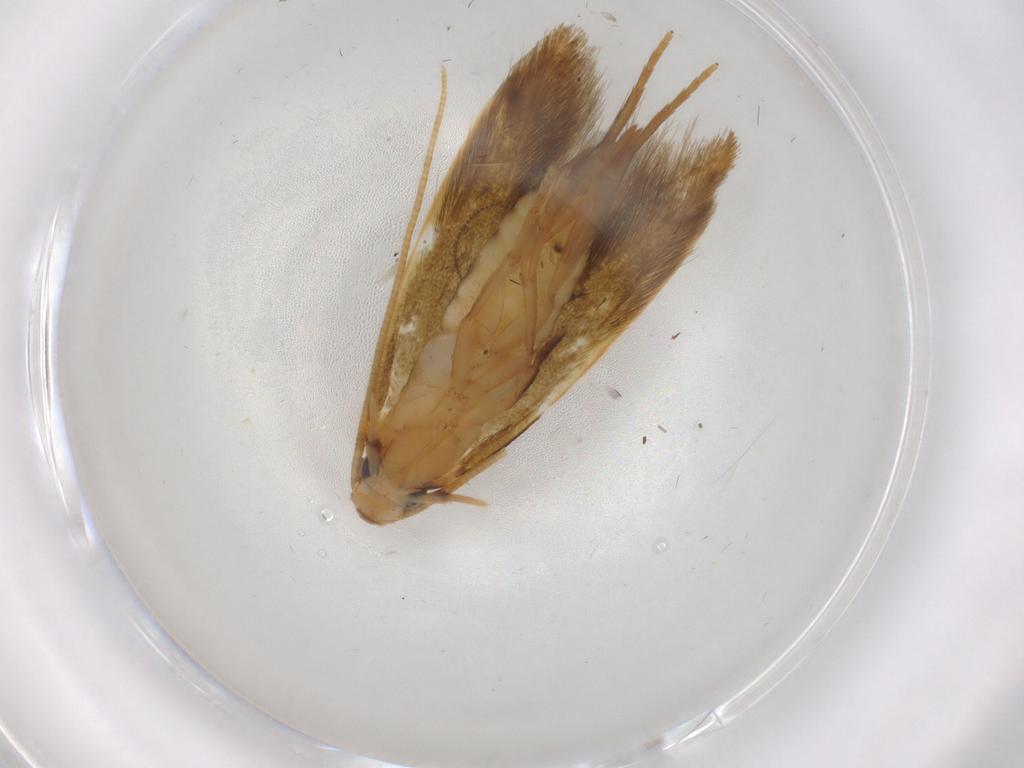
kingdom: Animalia
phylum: Arthropoda
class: Insecta
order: Lepidoptera
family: Tineidae
